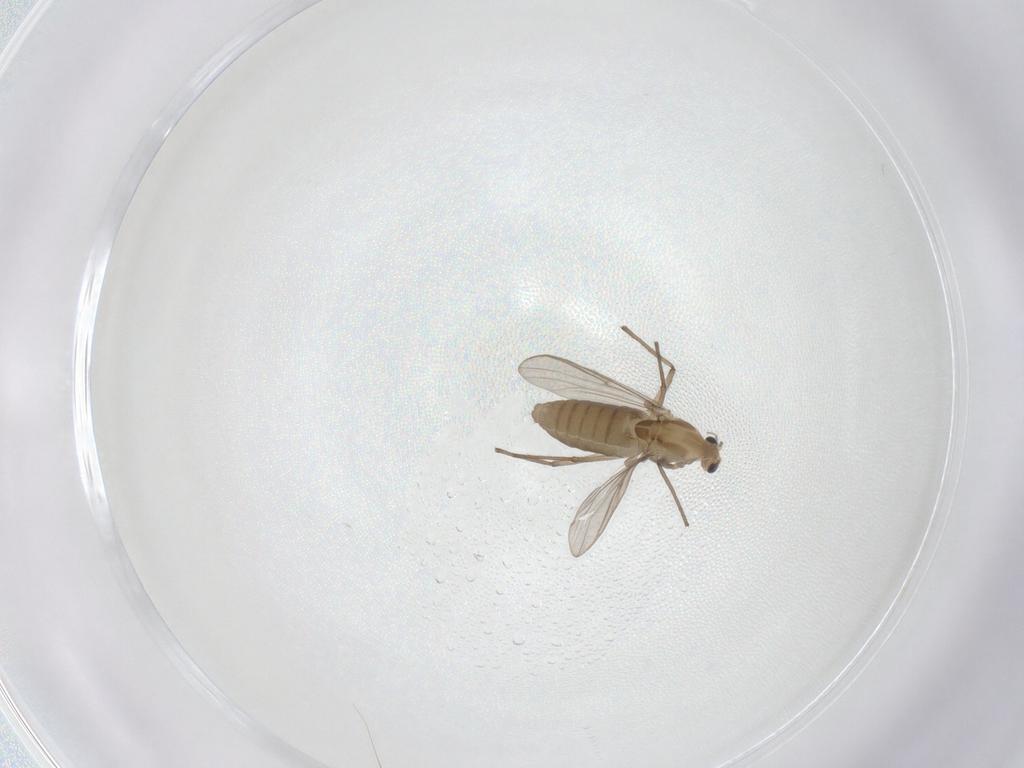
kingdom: Animalia
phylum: Arthropoda
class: Insecta
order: Diptera
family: Chironomidae
